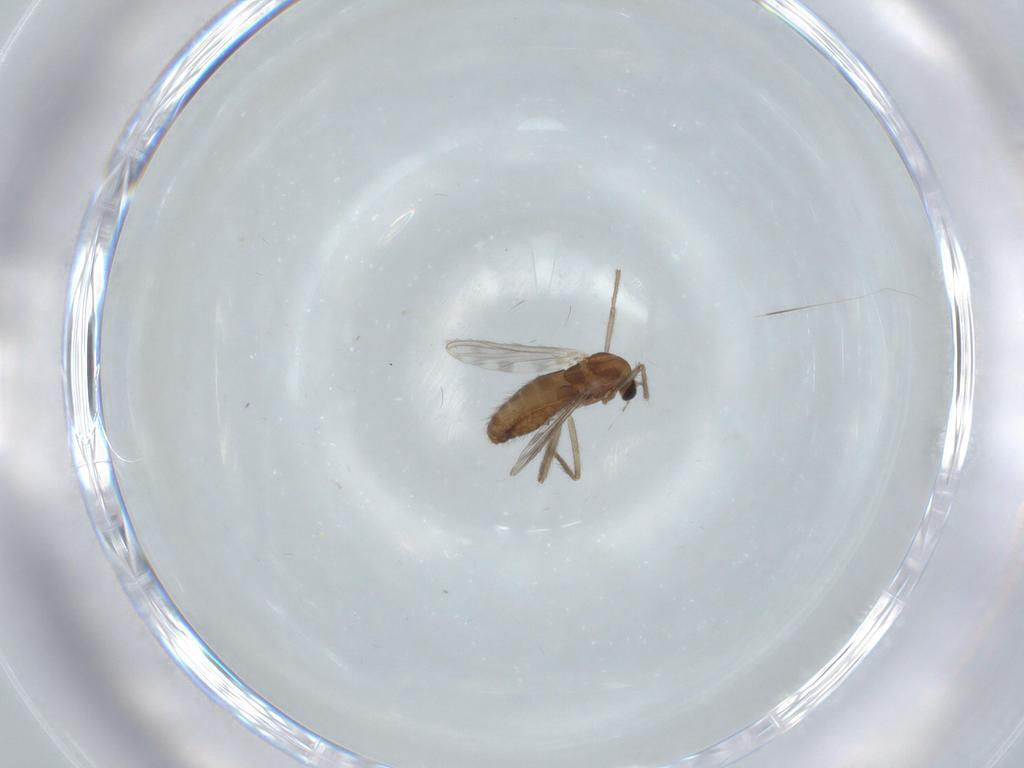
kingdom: Animalia
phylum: Arthropoda
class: Insecta
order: Diptera
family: Chironomidae
